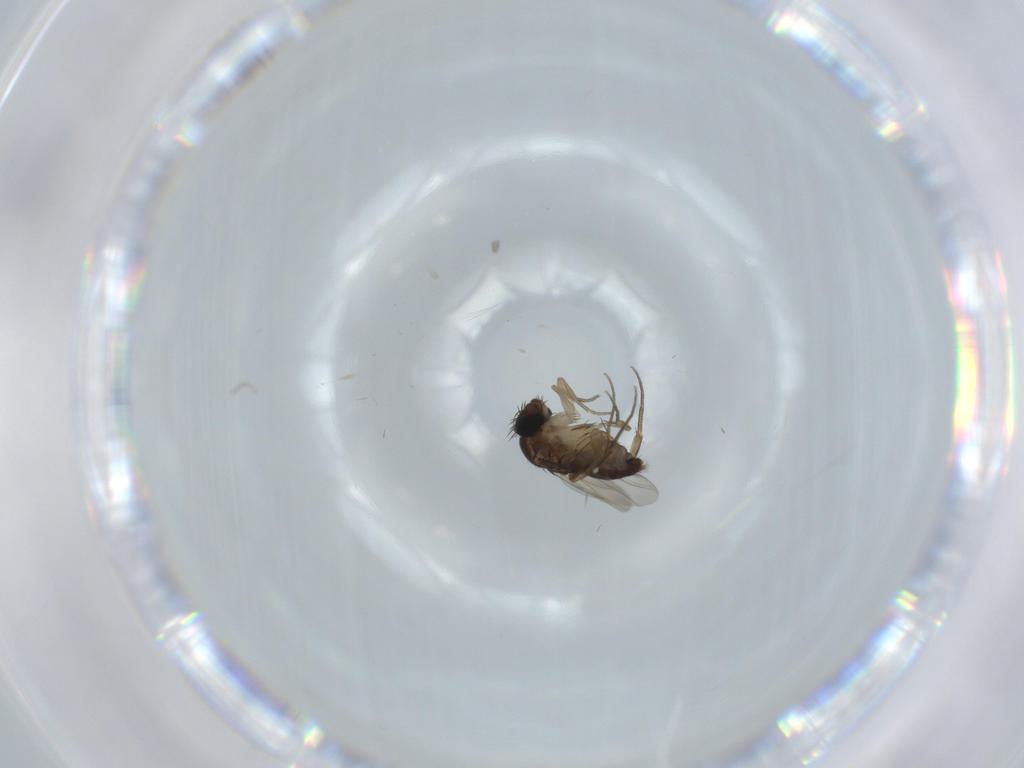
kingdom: Animalia
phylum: Arthropoda
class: Insecta
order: Diptera
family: Phoridae
